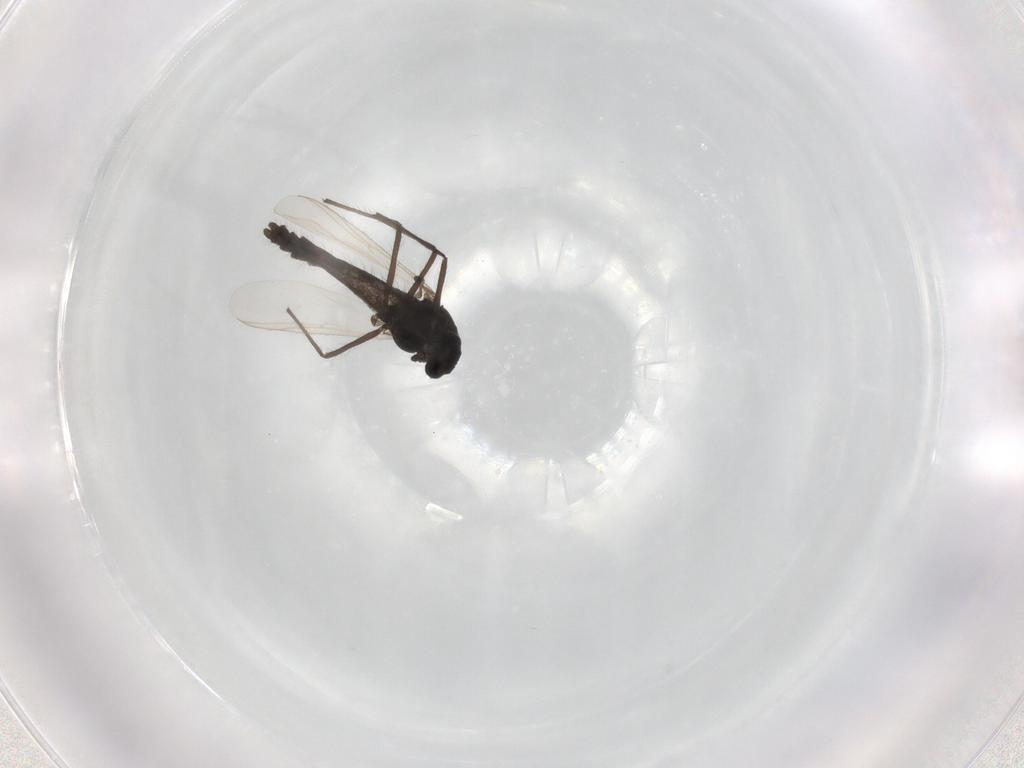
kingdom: Animalia
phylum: Arthropoda
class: Insecta
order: Diptera
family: Chironomidae
